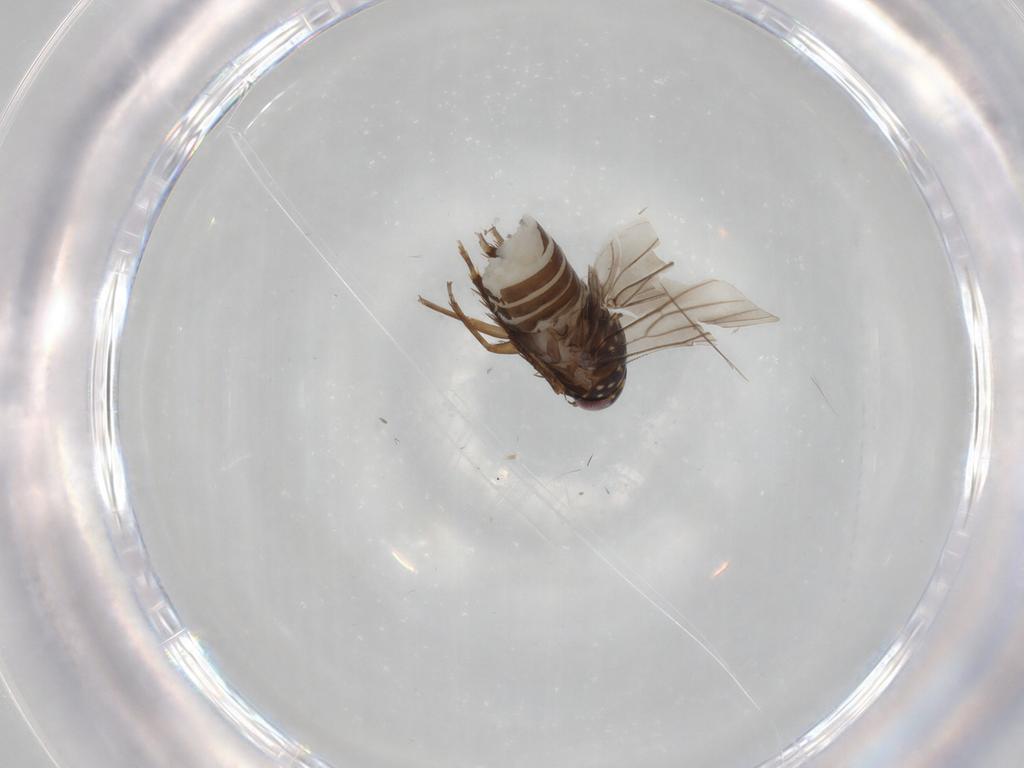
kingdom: Animalia
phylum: Arthropoda
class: Insecta
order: Hemiptera
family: Cicadellidae
